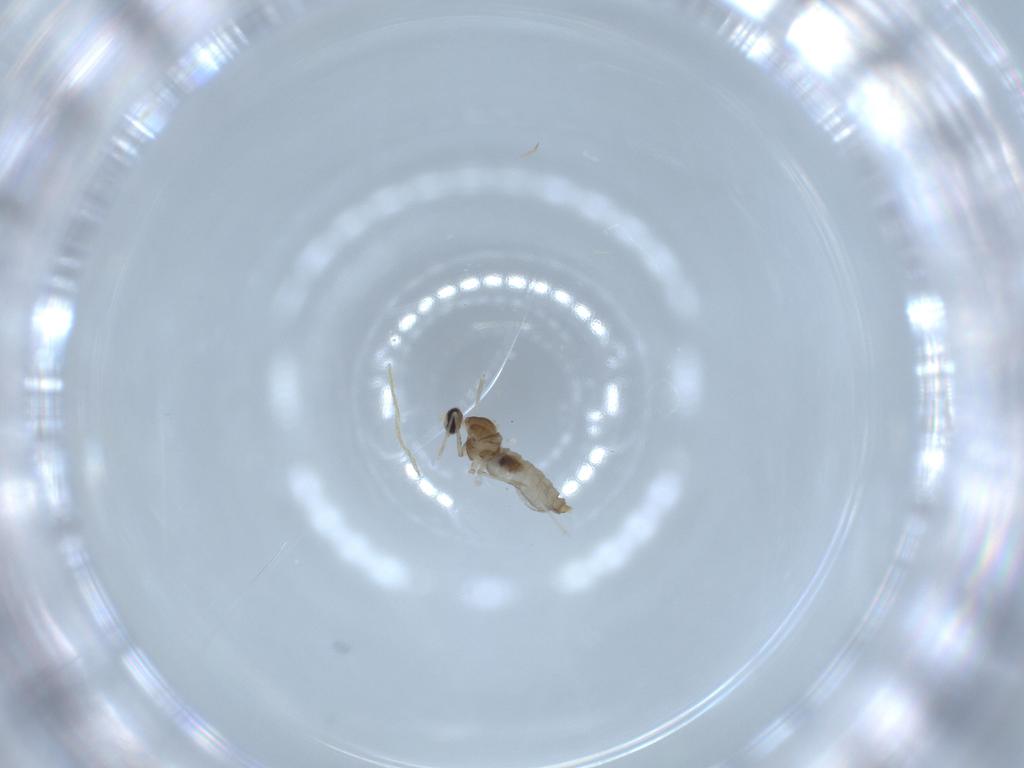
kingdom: Animalia
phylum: Arthropoda
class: Insecta
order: Diptera
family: Cecidomyiidae
